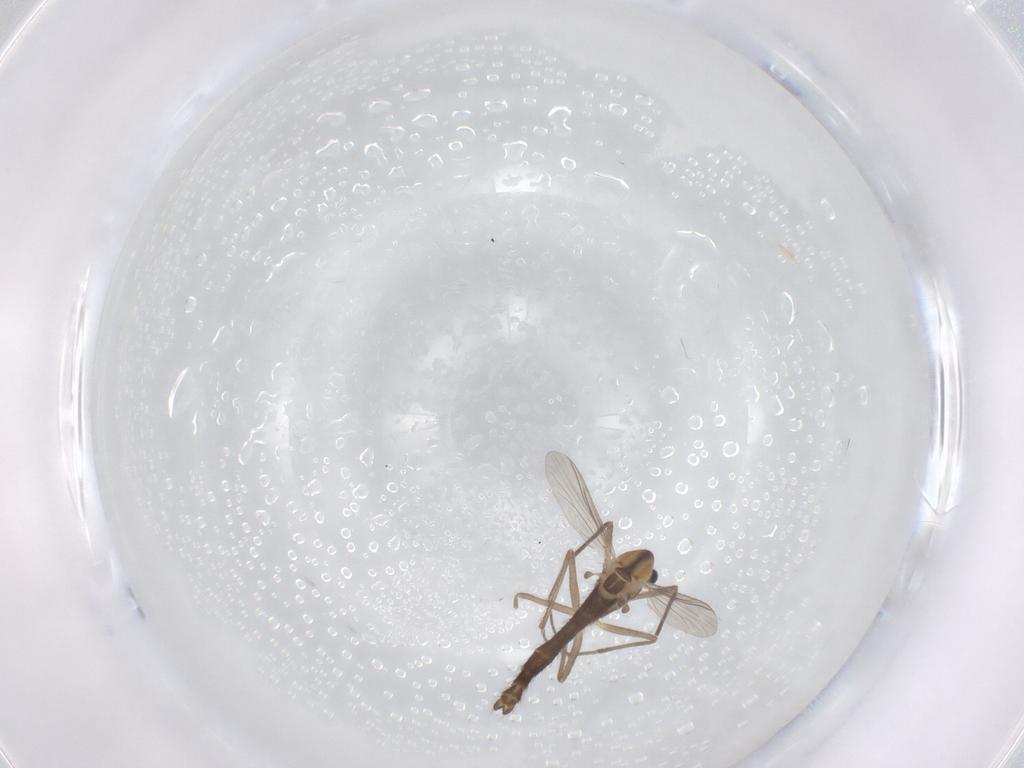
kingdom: Animalia
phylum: Arthropoda
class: Insecta
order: Diptera
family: Chironomidae
